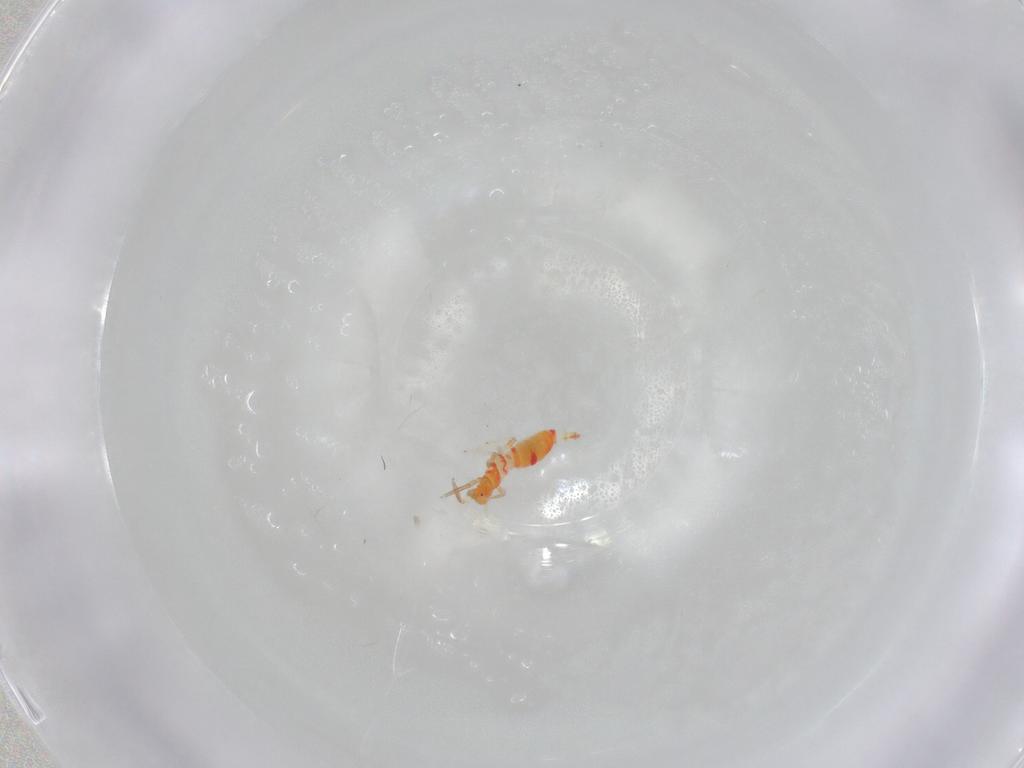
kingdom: Animalia
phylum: Arthropoda
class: Insecta
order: Thysanoptera
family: Thripidae
